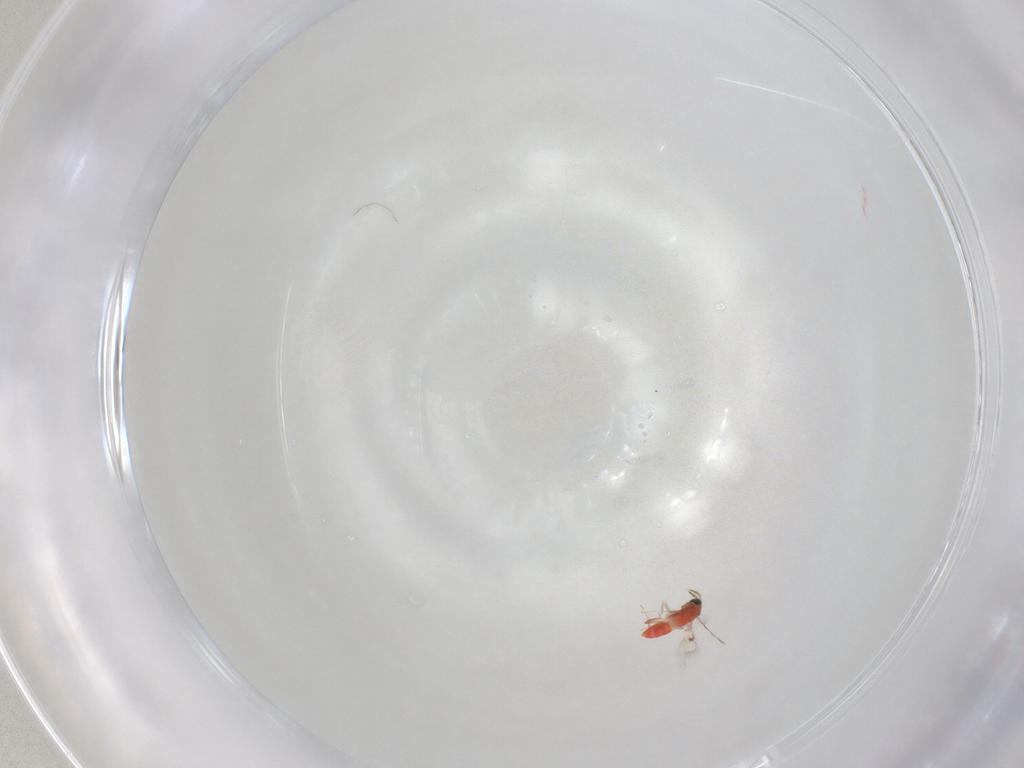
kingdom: Animalia
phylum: Arthropoda
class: Insecta
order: Hymenoptera
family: Trichogrammatidae
